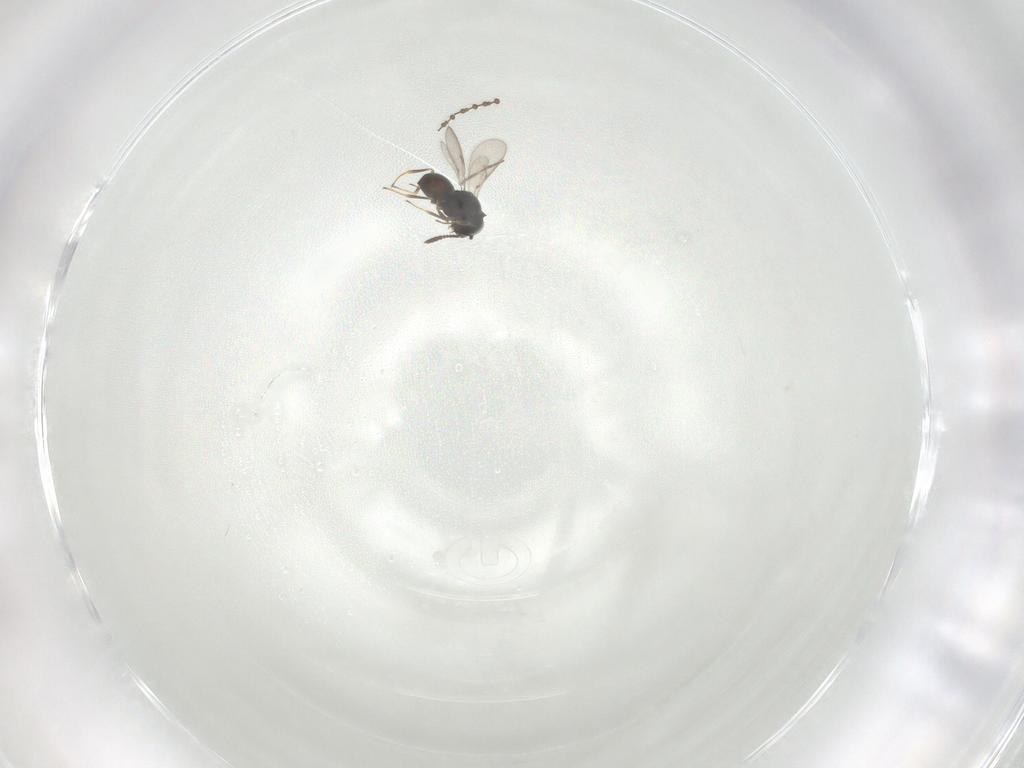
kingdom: Animalia
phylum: Arthropoda
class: Insecta
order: Hymenoptera
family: Scelionidae
